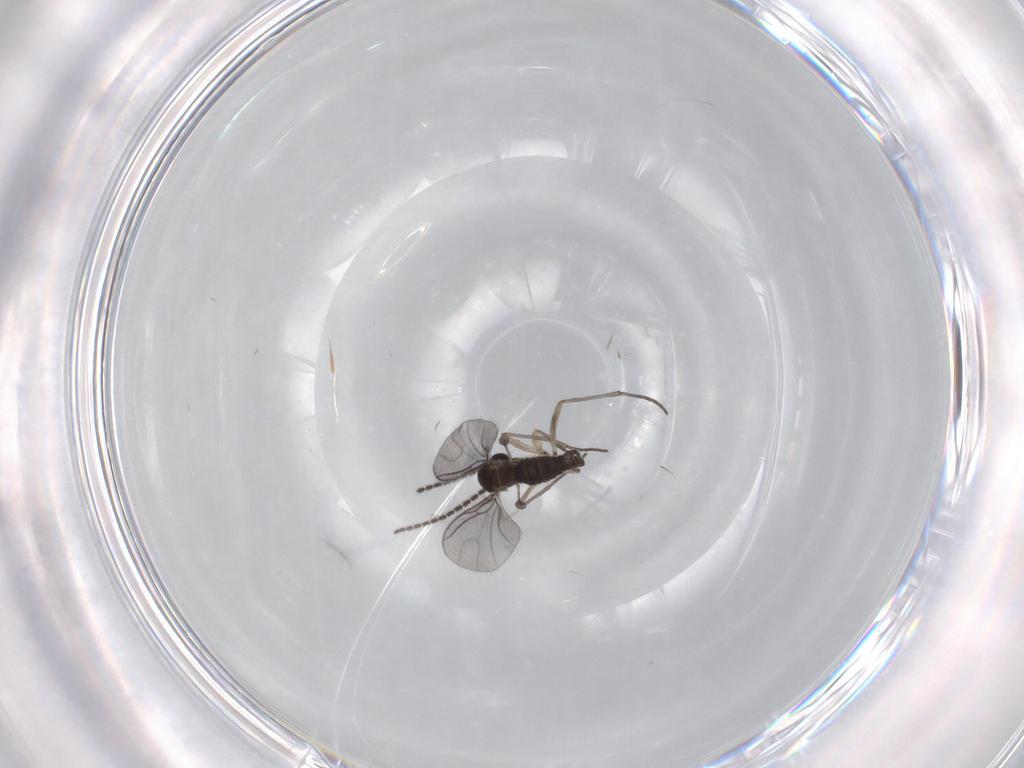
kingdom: Animalia
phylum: Arthropoda
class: Insecta
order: Diptera
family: Sciaridae
